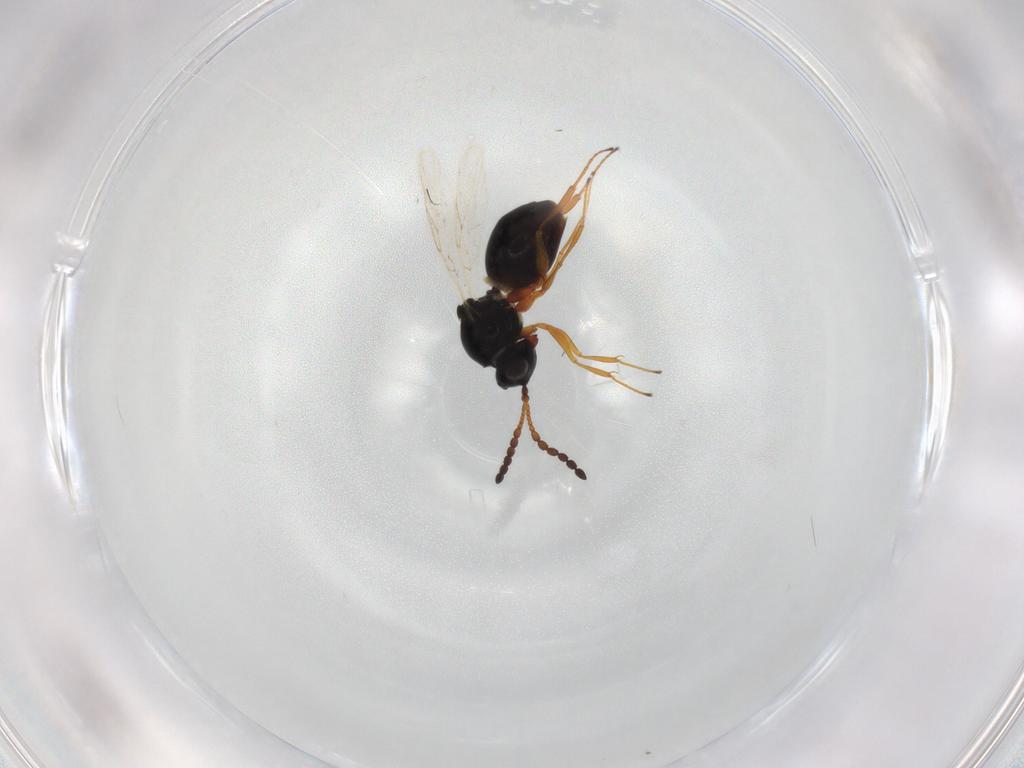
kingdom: Animalia
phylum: Arthropoda
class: Insecta
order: Hymenoptera
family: Figitidae
